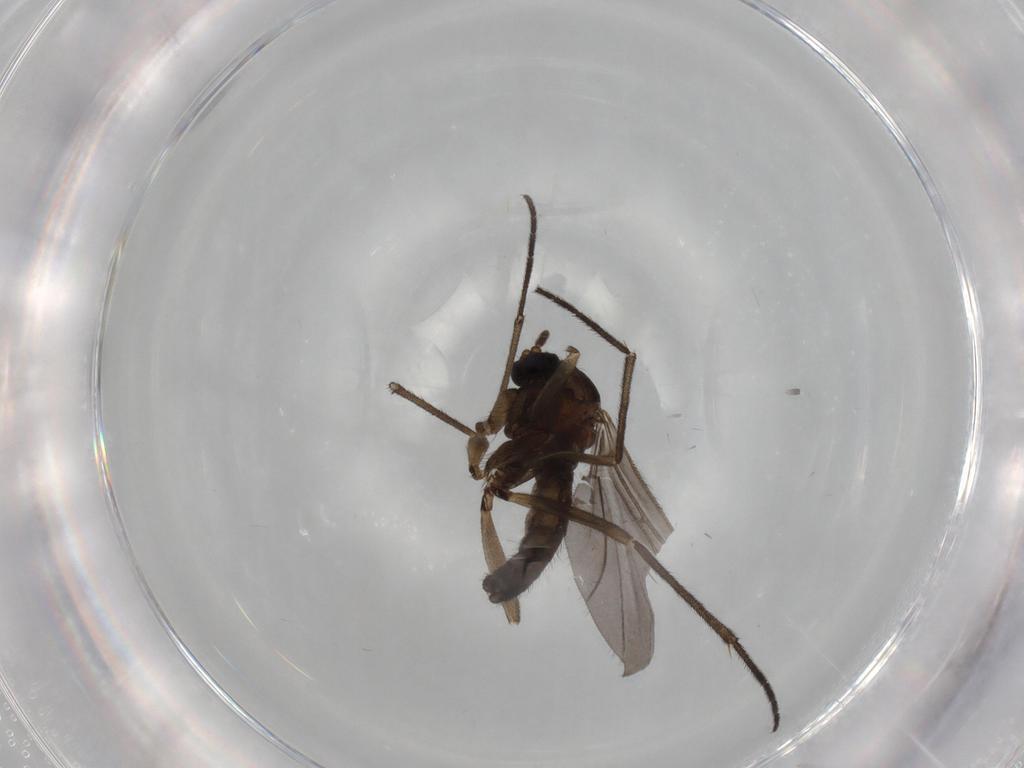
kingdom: Animalia
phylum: Arthropoda
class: Insecta
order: Diptera
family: Sciaridae
